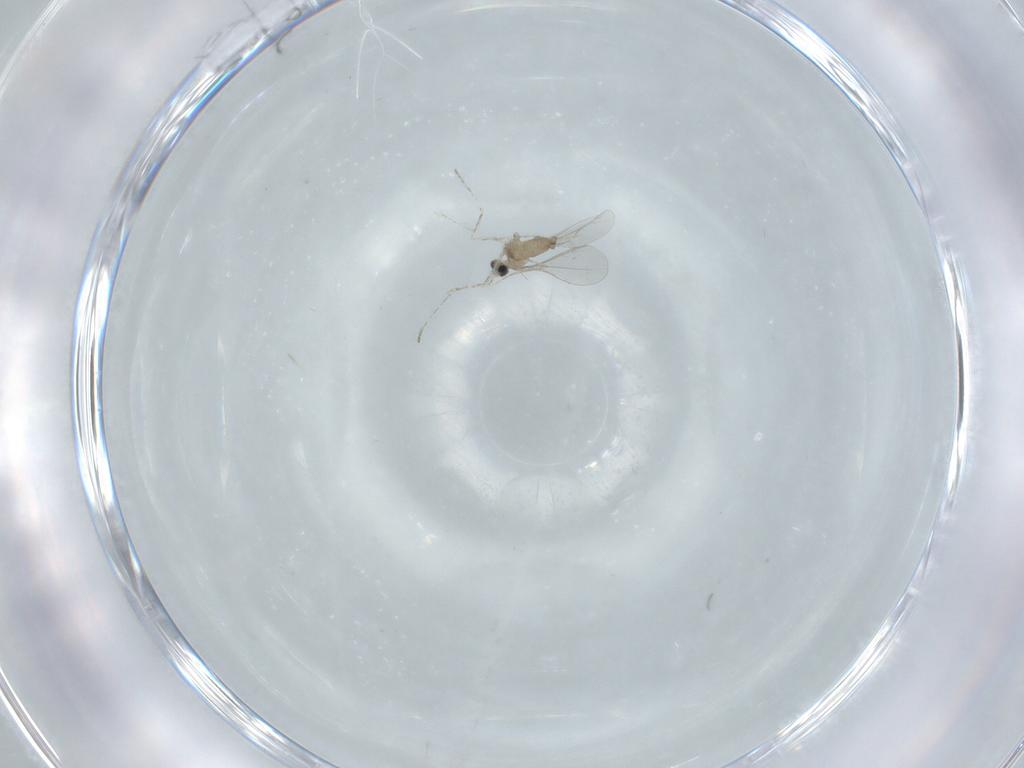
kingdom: Animalia
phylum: Arthropoda
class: Insecta
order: Diptera
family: Cecidomyiidae
